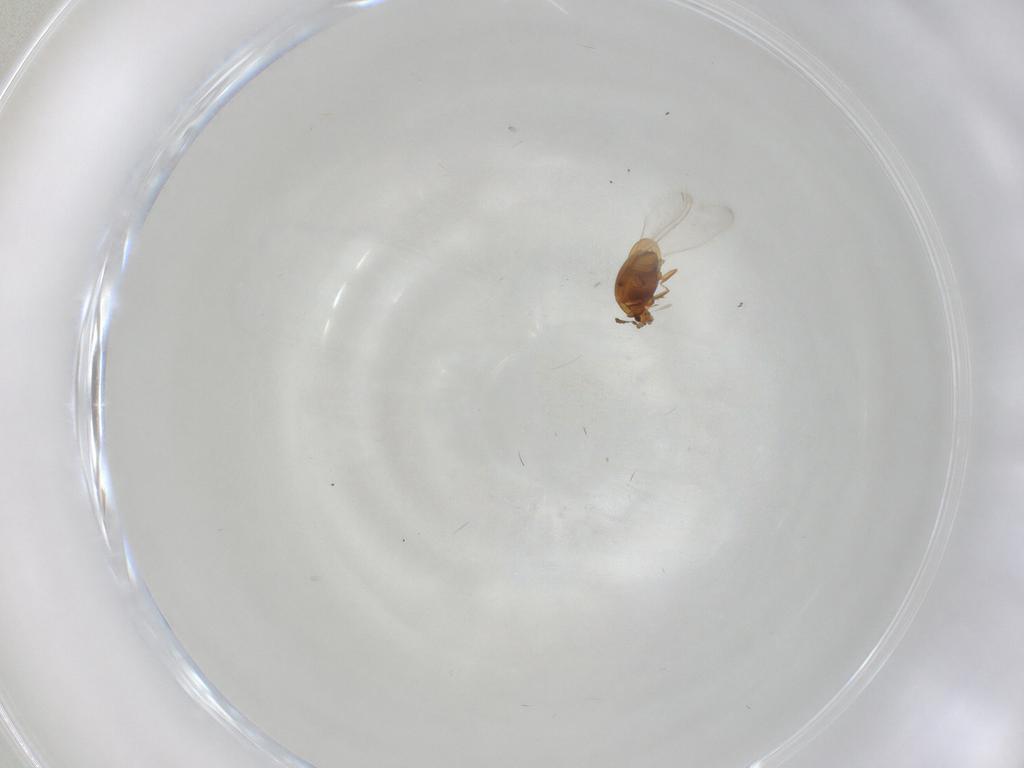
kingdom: Animalia
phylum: Arthropoda
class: Insecta
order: Coleoptera
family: Corylophidae
